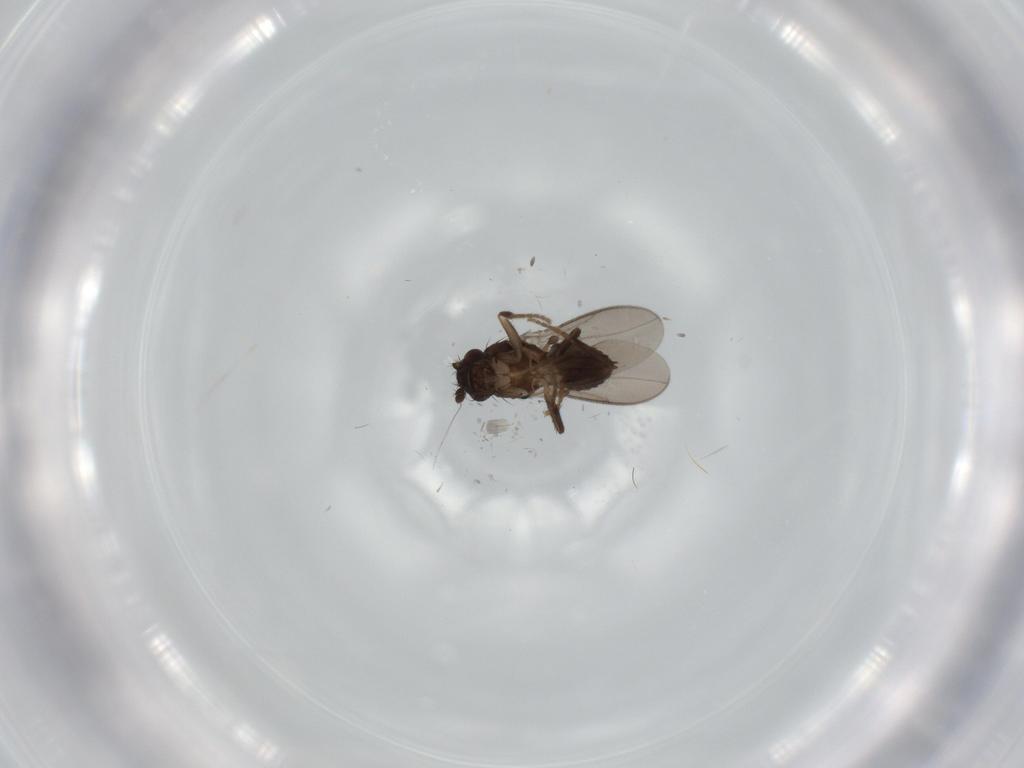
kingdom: Animalia
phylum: Arthropoda
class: Insecta
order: Diptera
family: Sphaeroceridae
